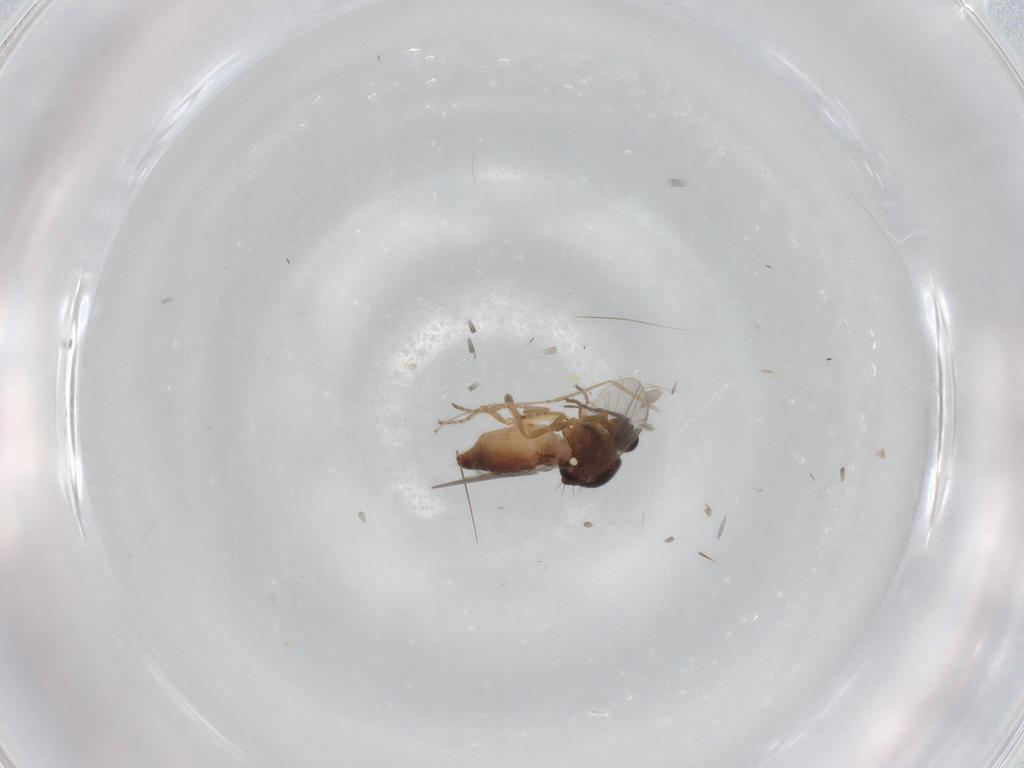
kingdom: Animalia
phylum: Arthropoda
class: Insecta
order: Diptera
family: Ceratopogonidae
